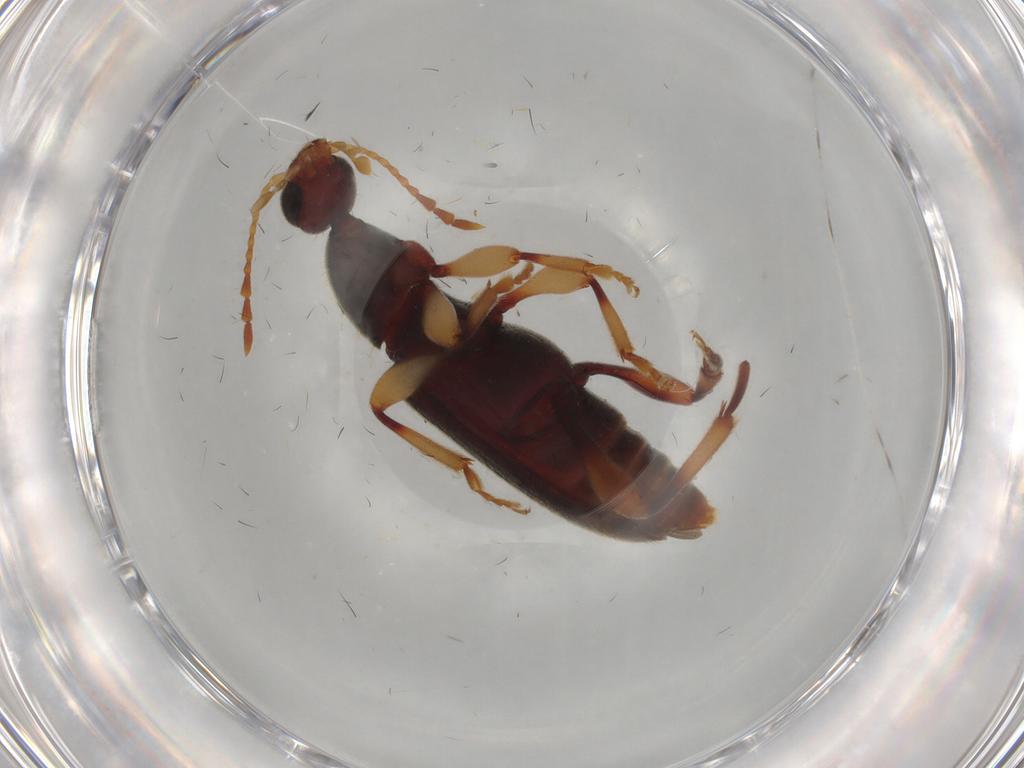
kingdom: Animalia
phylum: Arthropoda
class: Insecta
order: Coleoptera
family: Anthicidae
